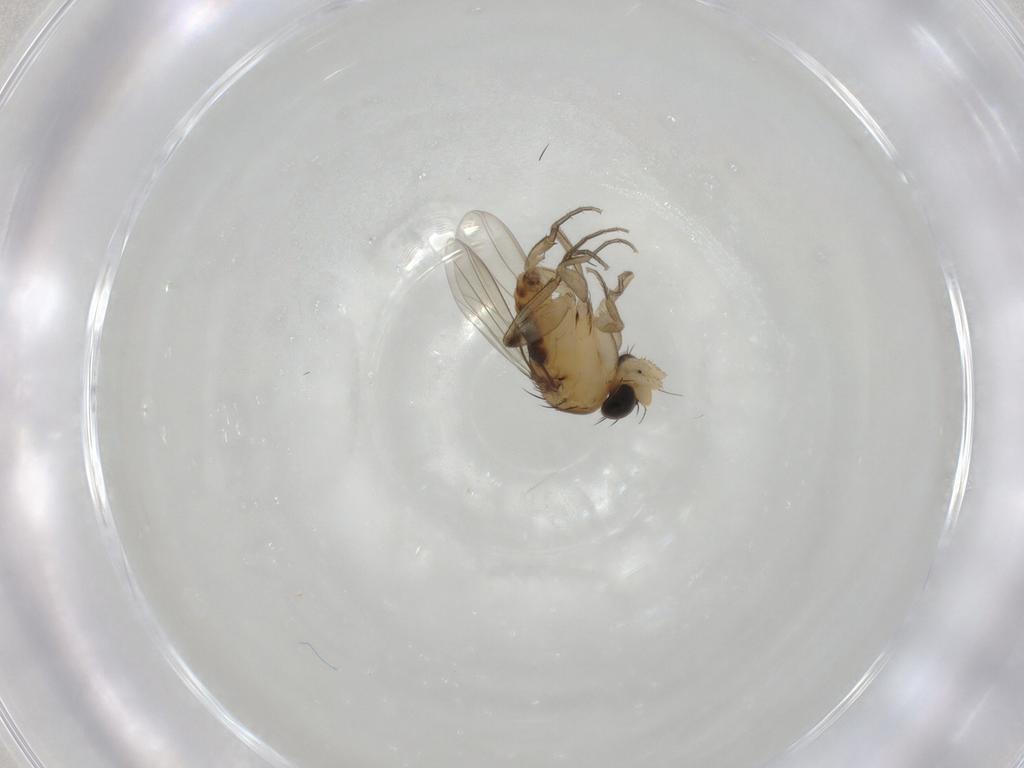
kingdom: Animalia
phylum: Arthropoda
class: Insecta
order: Diptera
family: Phoridae
